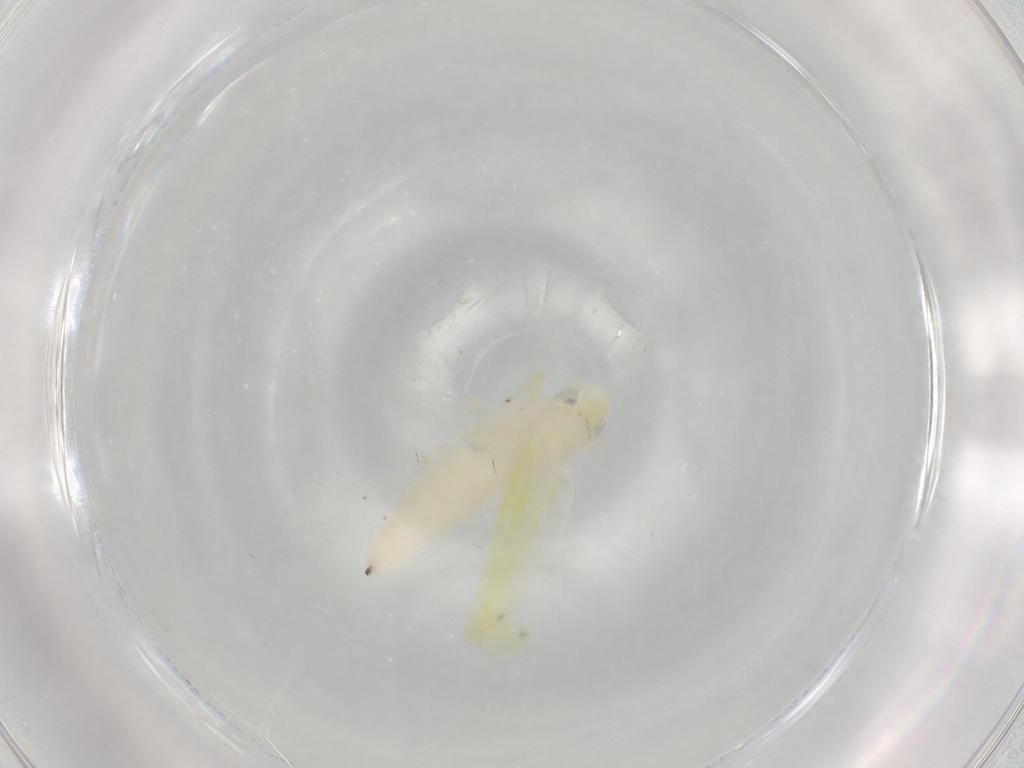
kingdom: Animalia
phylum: Arthropoda
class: Insecta
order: Hemiptera
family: Cicadellidae
